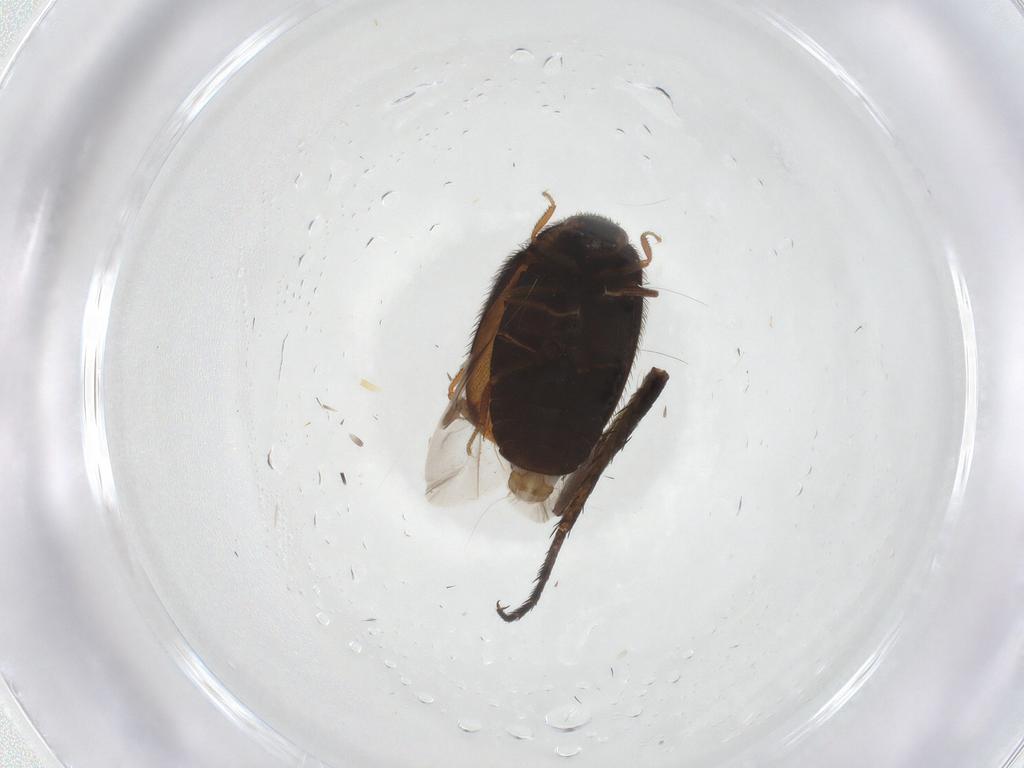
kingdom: Animalia
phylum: Arthropoda
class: Insecta
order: Coleoptera
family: Dermestidae
